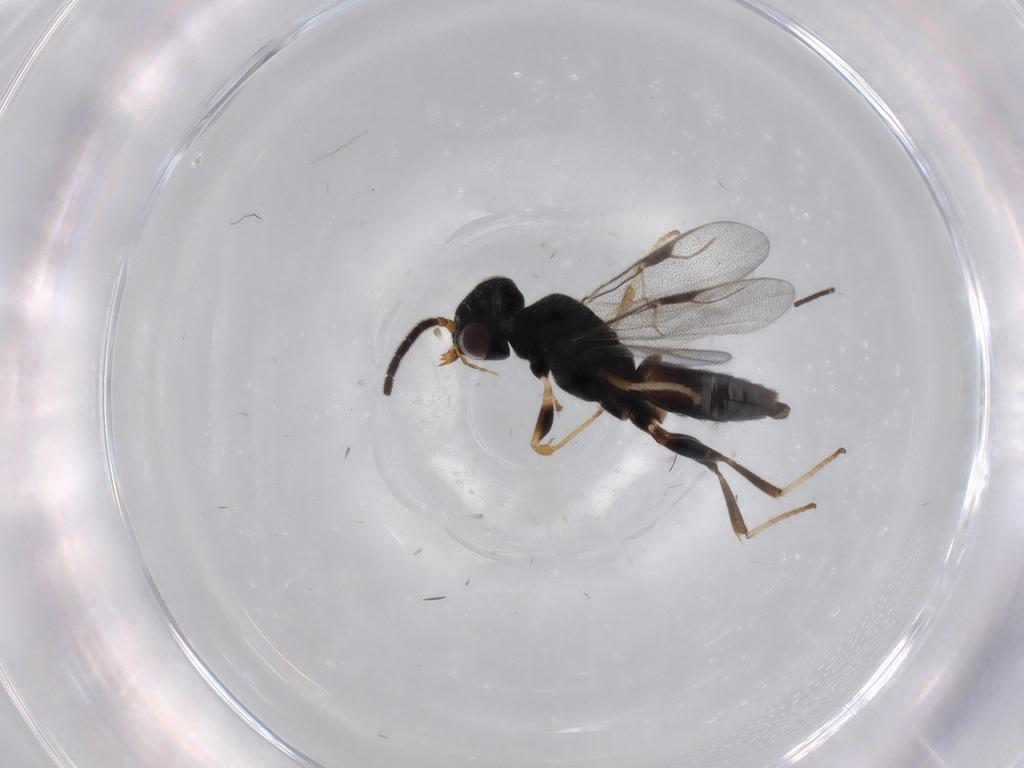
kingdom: Animalia
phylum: Arthropoda
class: Insecta
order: Hymenoptera
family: Dryinidae
